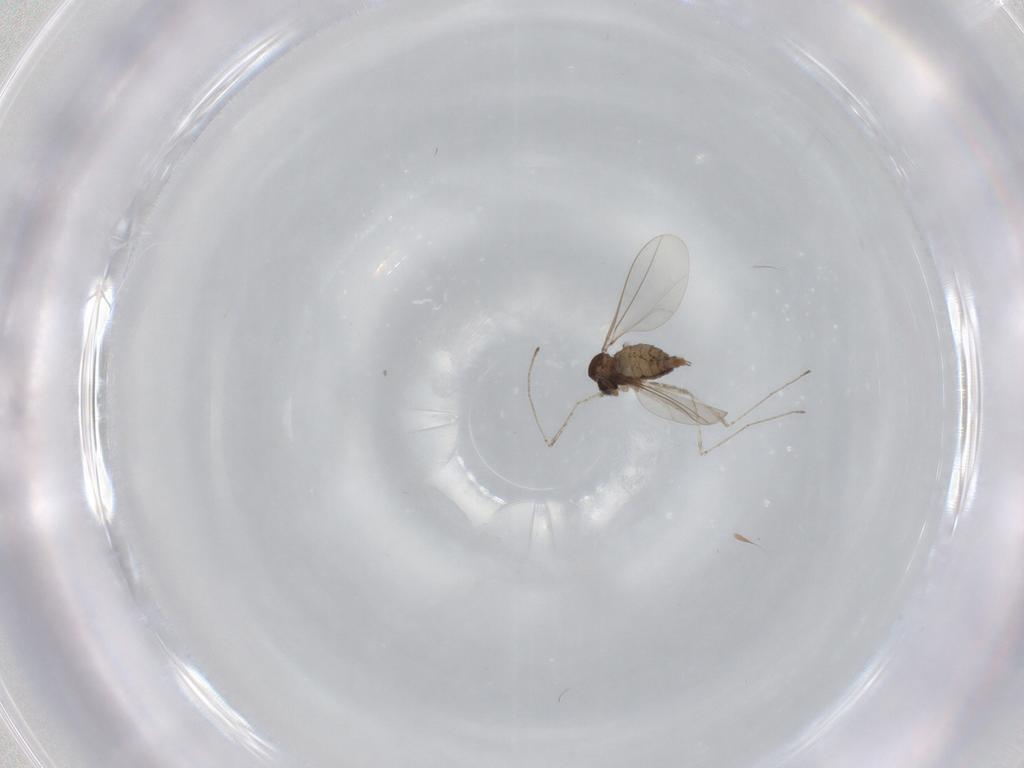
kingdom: Animalia
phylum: Arthropoda
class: Insecta
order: Diptera
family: Cecidomyiidae
